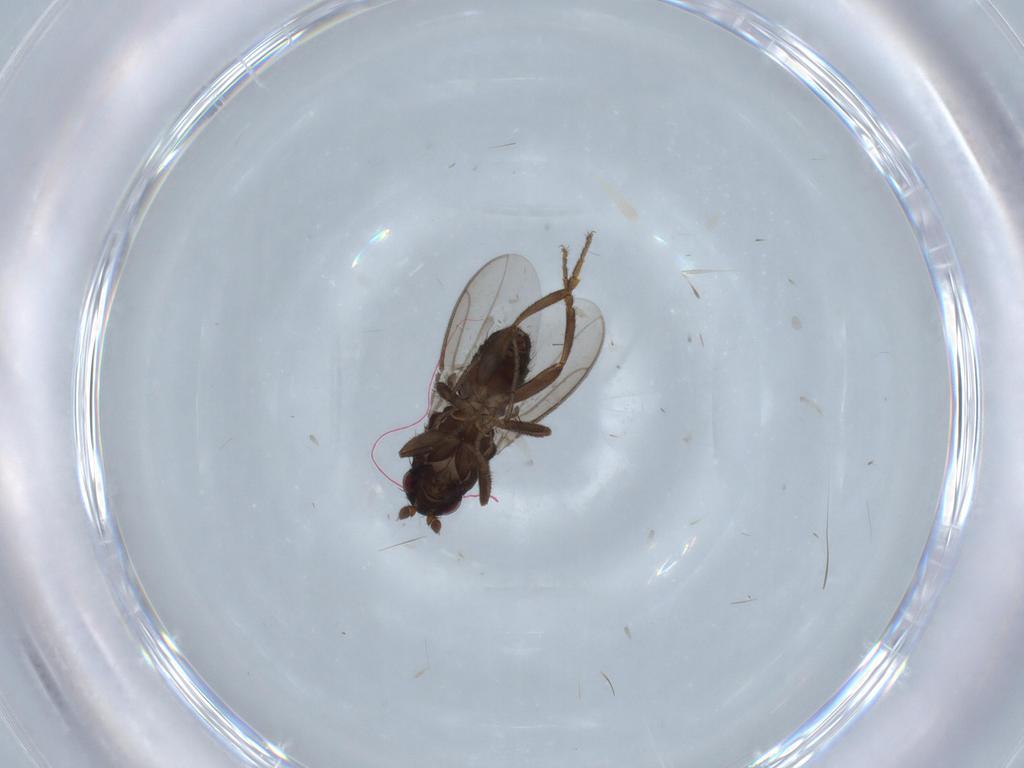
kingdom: Animalia
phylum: Arthropoda
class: Insecta
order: Diptera
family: Sphaeroceridae
